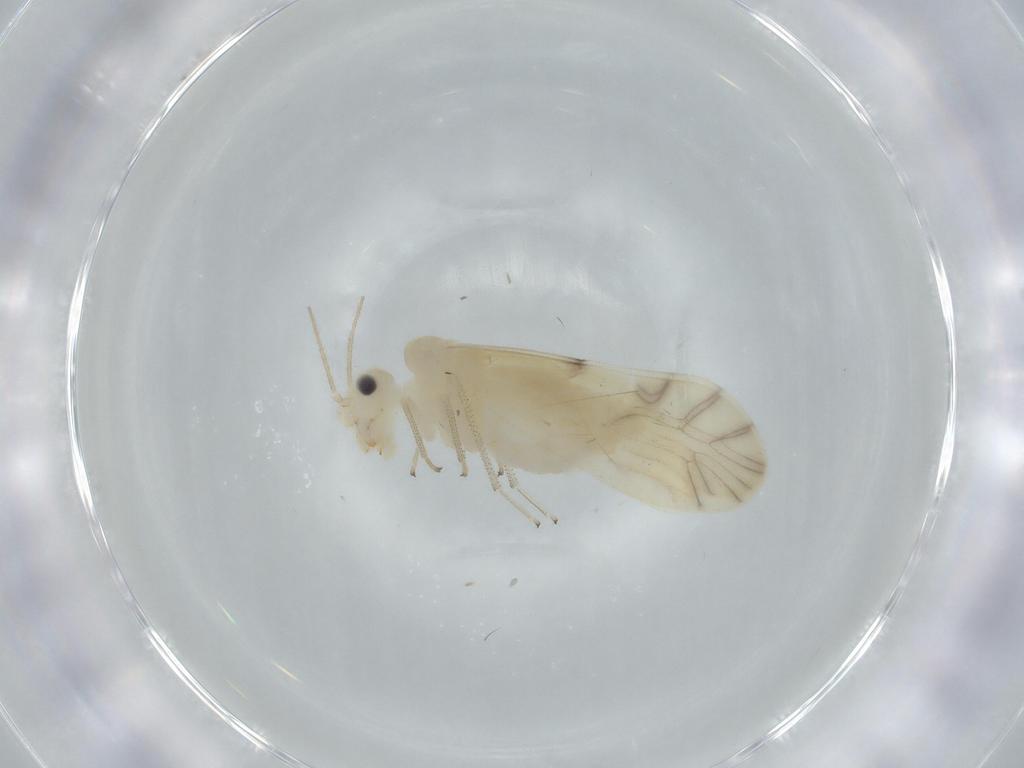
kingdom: Animalia
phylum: Arthropoda
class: Insecta
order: Psocodea
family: Caeciliusidae
